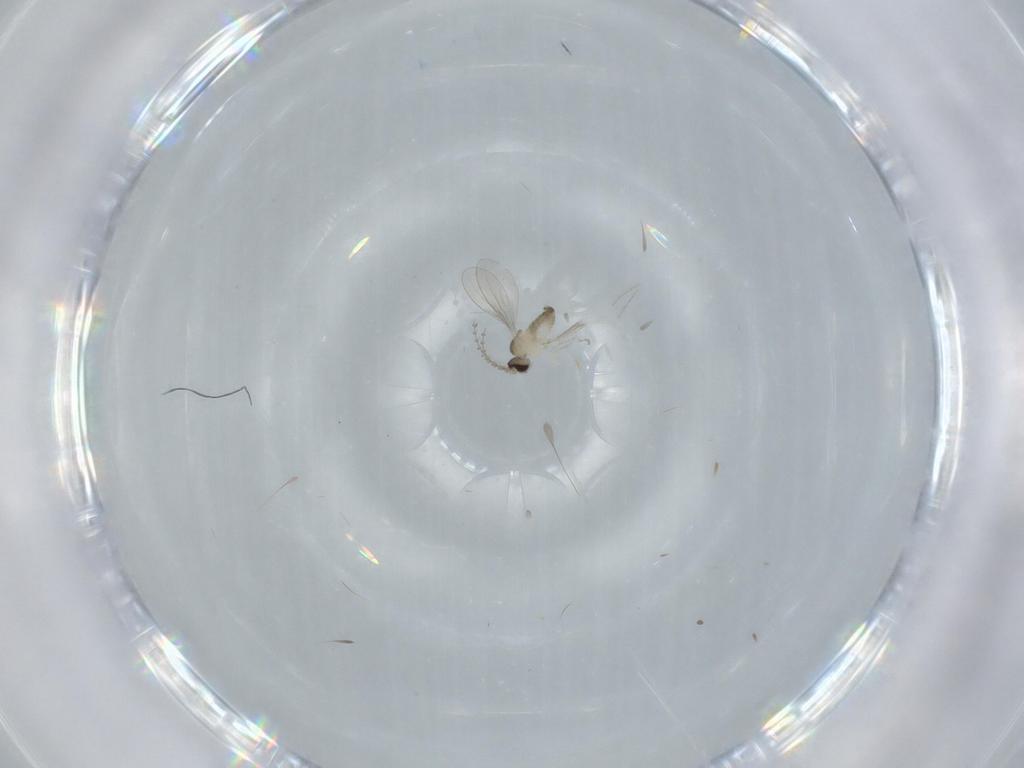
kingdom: Animalia
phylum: Arthropoda
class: Insecta
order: Diptera
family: Cecidomyiidae
